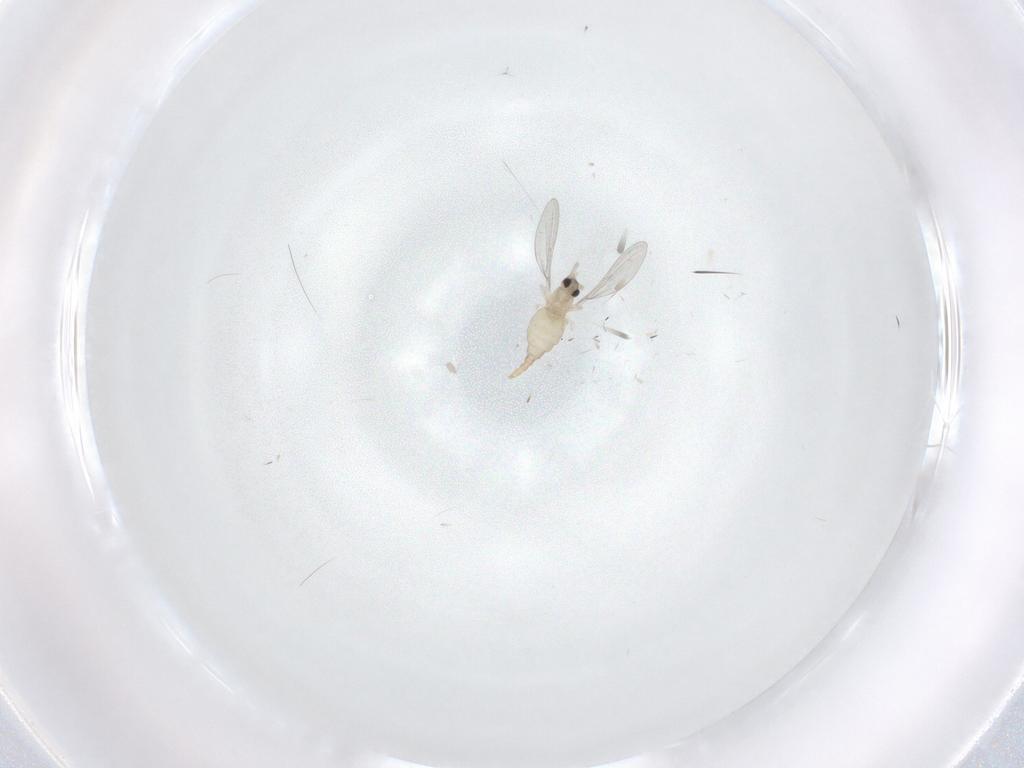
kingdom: Animalia
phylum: Arthropoda
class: Insecta
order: Diptera
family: Cecidomyiidae
